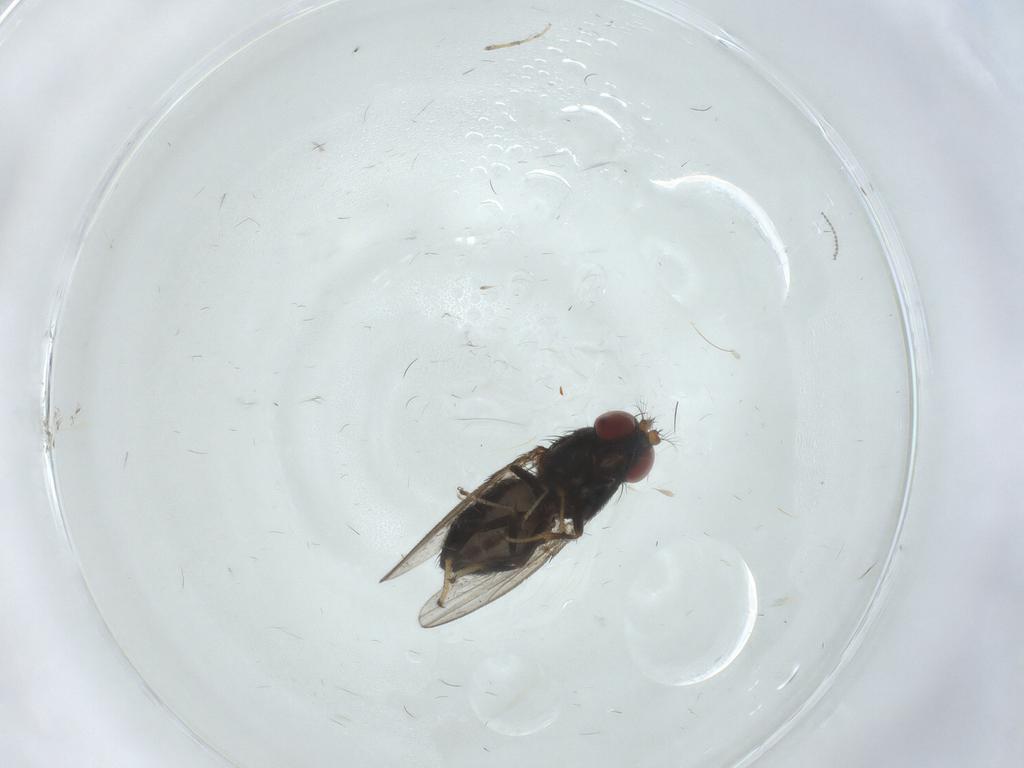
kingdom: Animalia
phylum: Arthropoda
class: Insecta
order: Diptera
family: Ephydridae
